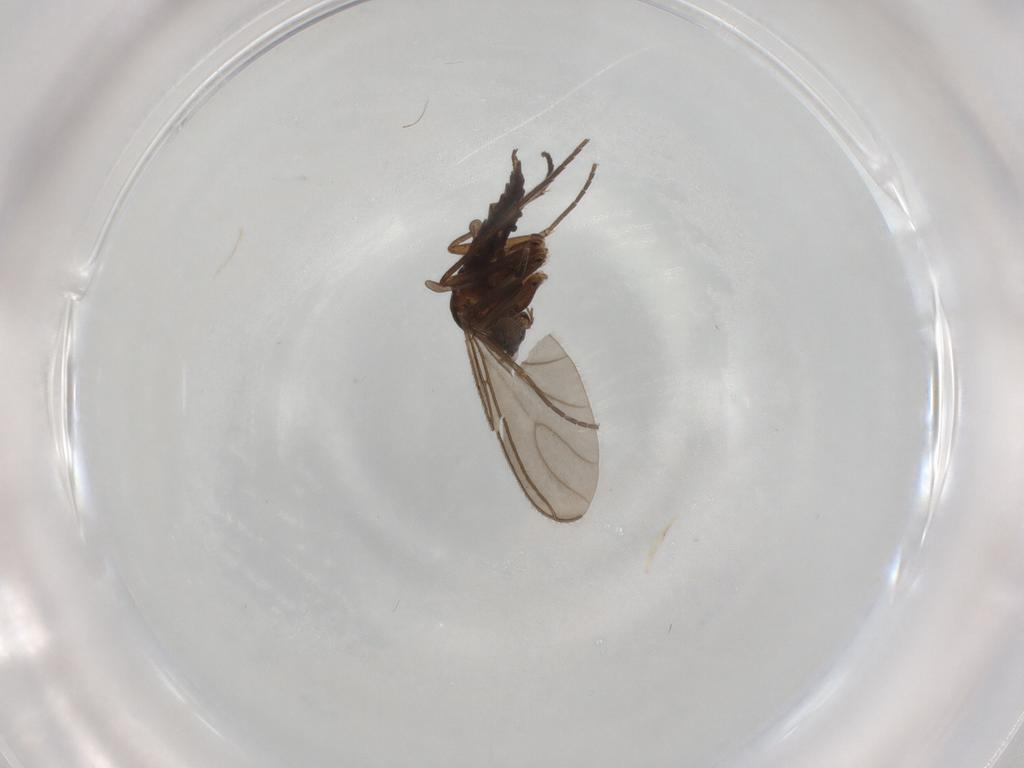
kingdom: Animalia
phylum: Arthropoda
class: Insecta
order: Diptera
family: Sciaridae
